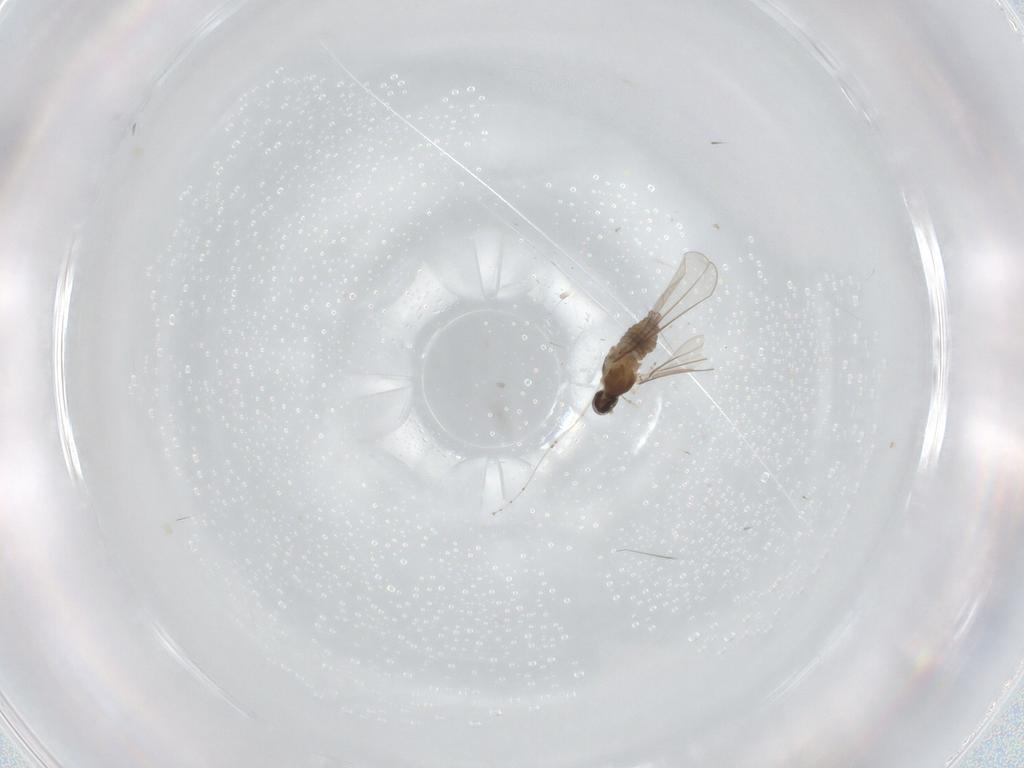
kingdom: Animalia
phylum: Arthropoda
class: Insecta
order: Diptera
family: Cecidomyiidae
